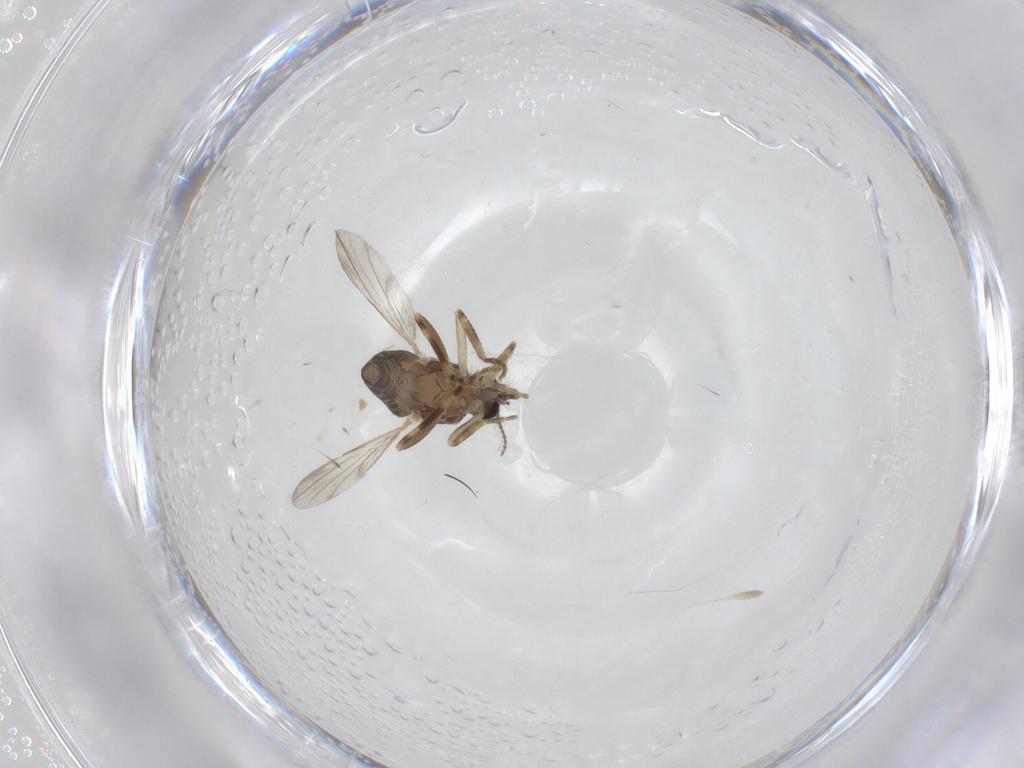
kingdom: Animalia
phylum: Arthropoda
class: Insecta
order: Diptera
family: Ceratopogonidae
